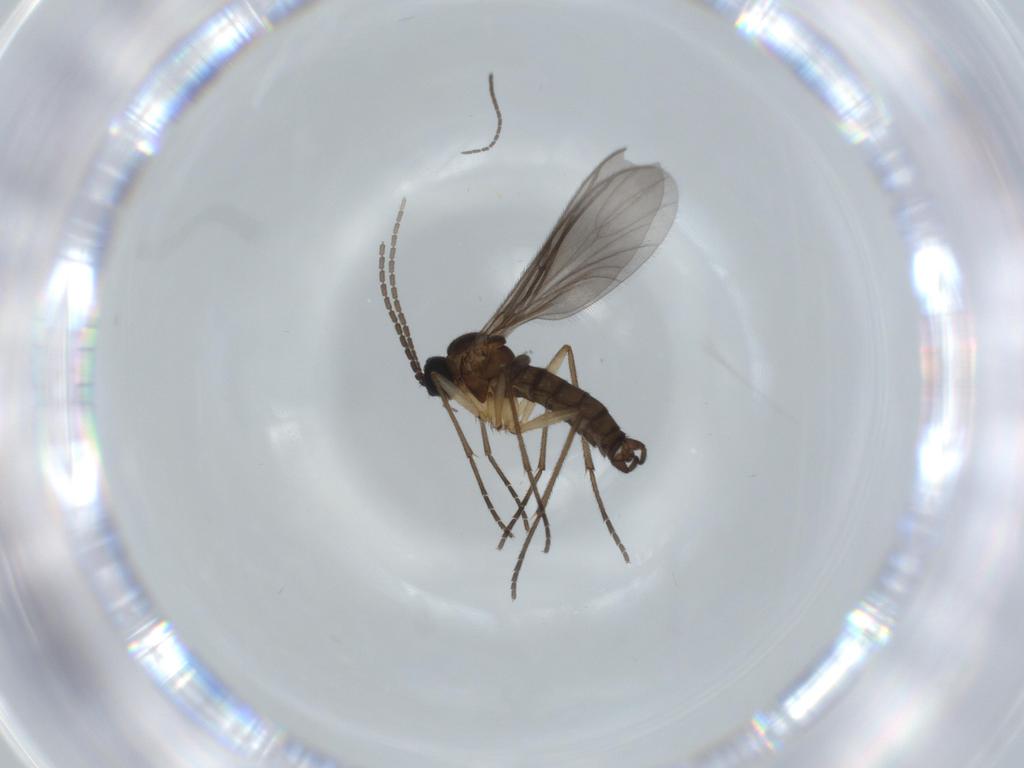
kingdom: Animalia
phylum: Arthropoda
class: Insecta
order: Diptera
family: Sciaridae
